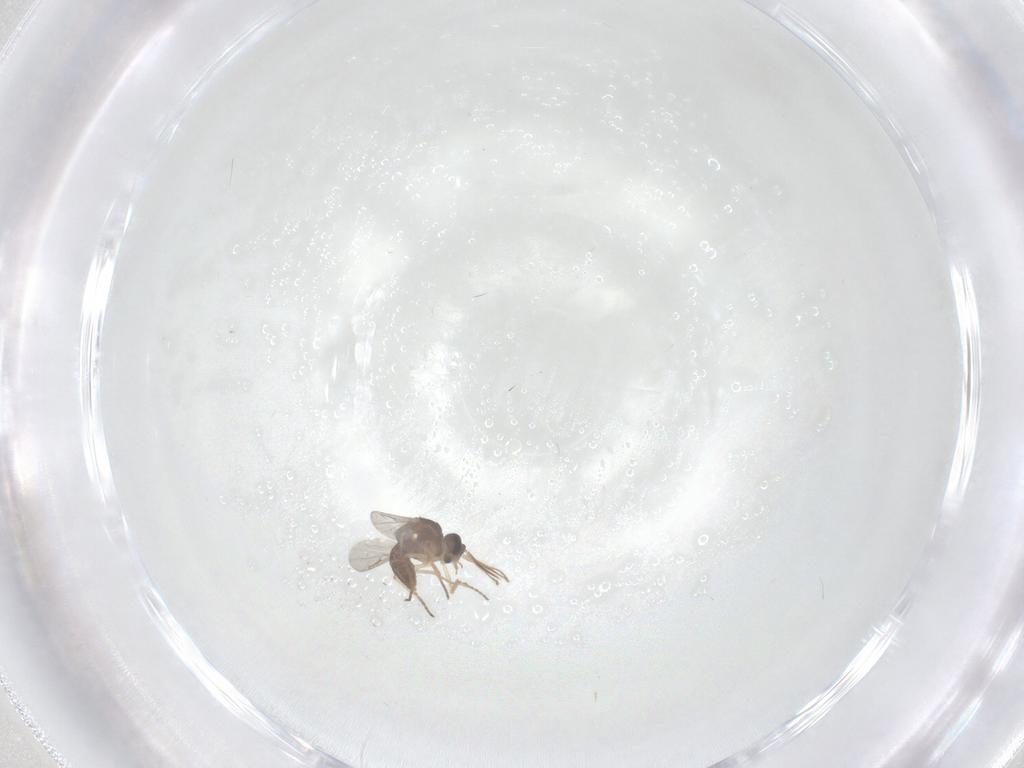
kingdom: Animalia
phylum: Arthropoda
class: Insecta
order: Diptera
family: Ceratopogonidae
